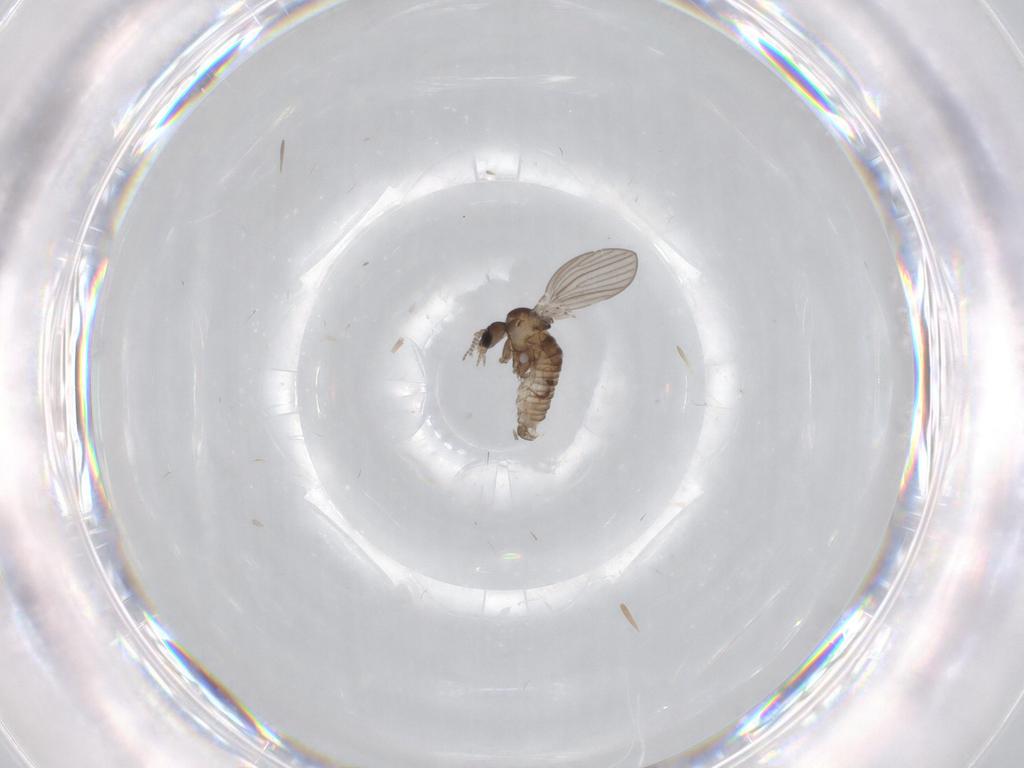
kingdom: Animalia
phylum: Arthropoda
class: Insecta
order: Diptera
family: Psychodidae
